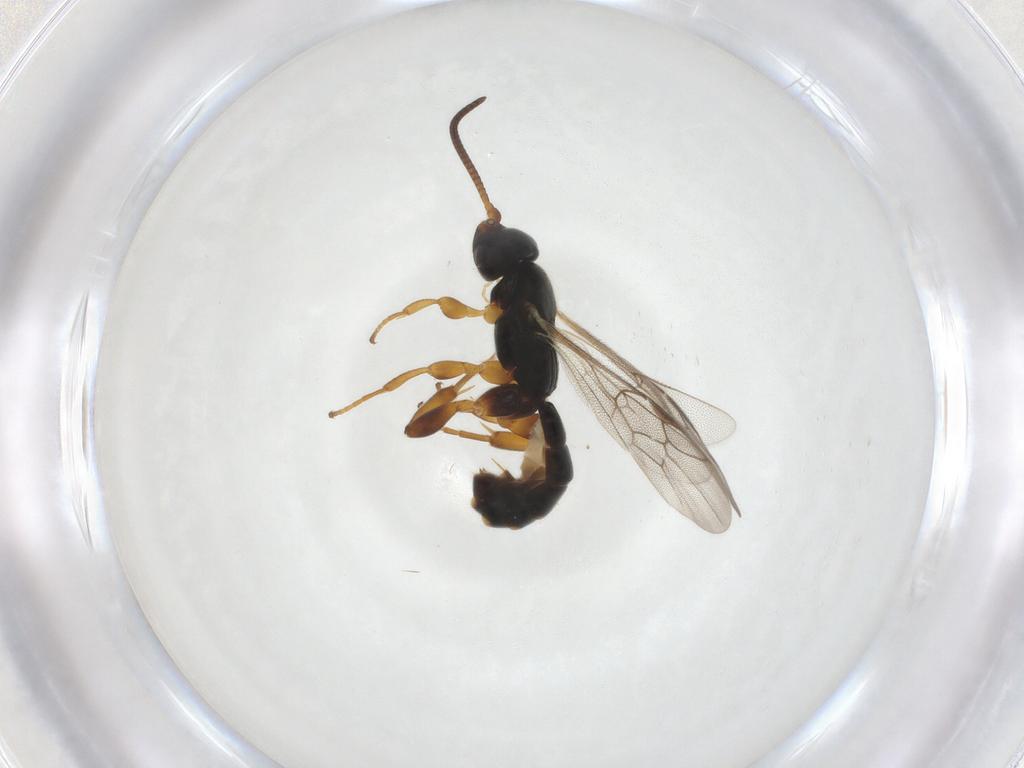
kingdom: Animalia
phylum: Arthropoda
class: Insecta
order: Hymenoptera
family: Ichneumonidae
